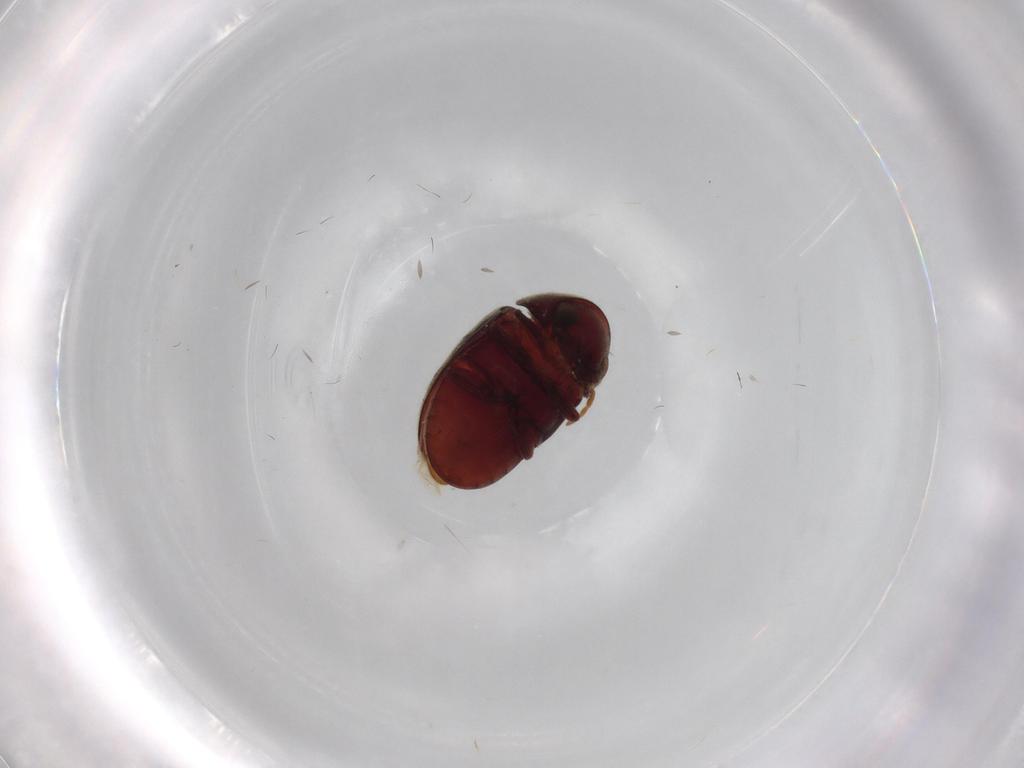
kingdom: Animalia
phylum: Arthropoda
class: Insecta
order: Coleoptera
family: Ptinidae
